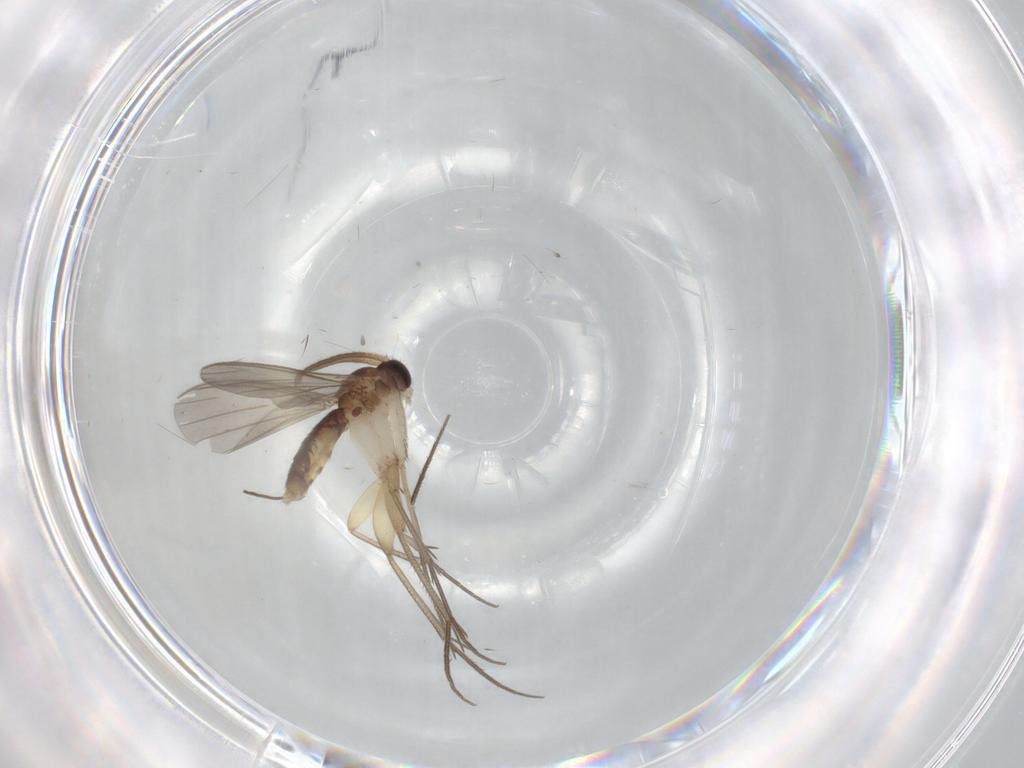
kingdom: Animalia
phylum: Arthropoda
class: Insecta
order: Diptera
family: Mycetophilidae
